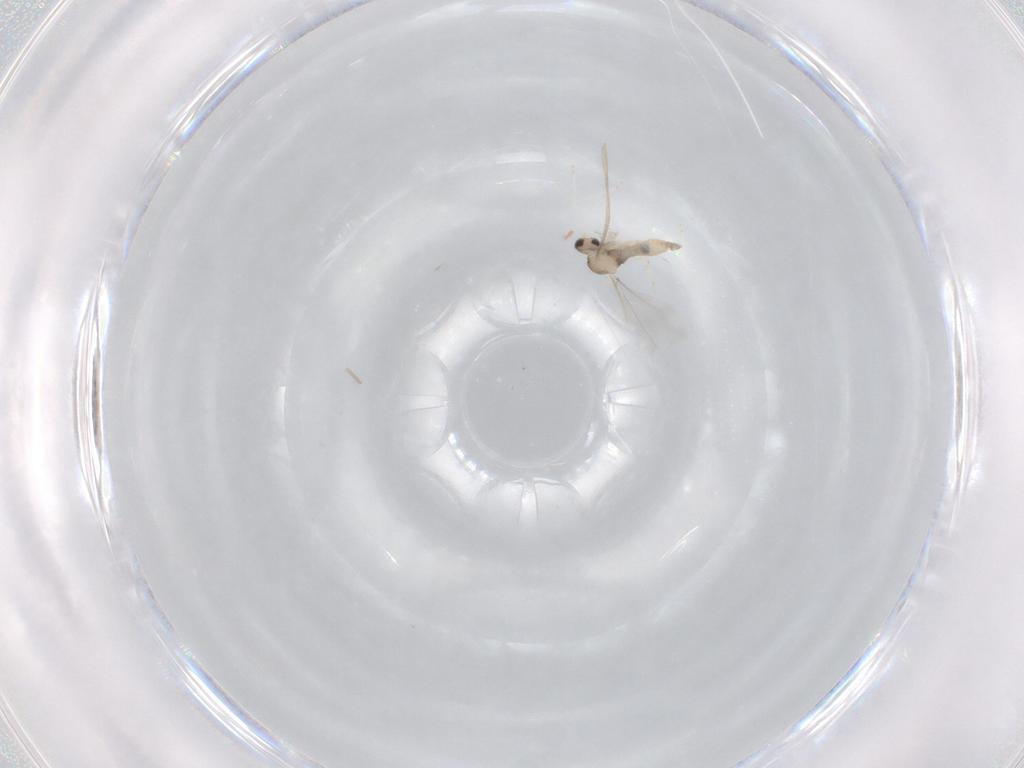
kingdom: Animalia
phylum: Arthropoda
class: Insecta
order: Diptera
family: Cecidomyiidae
